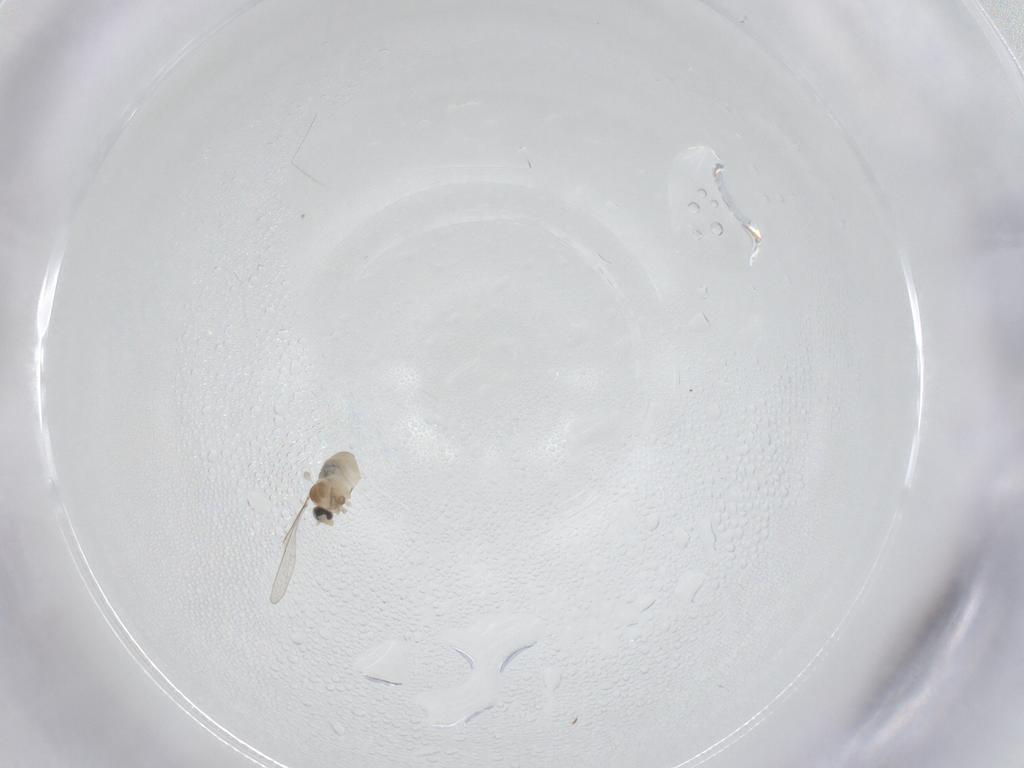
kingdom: Animalia
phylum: Arthropoda
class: Insecta
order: Diptera
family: Cecidomyiidae
